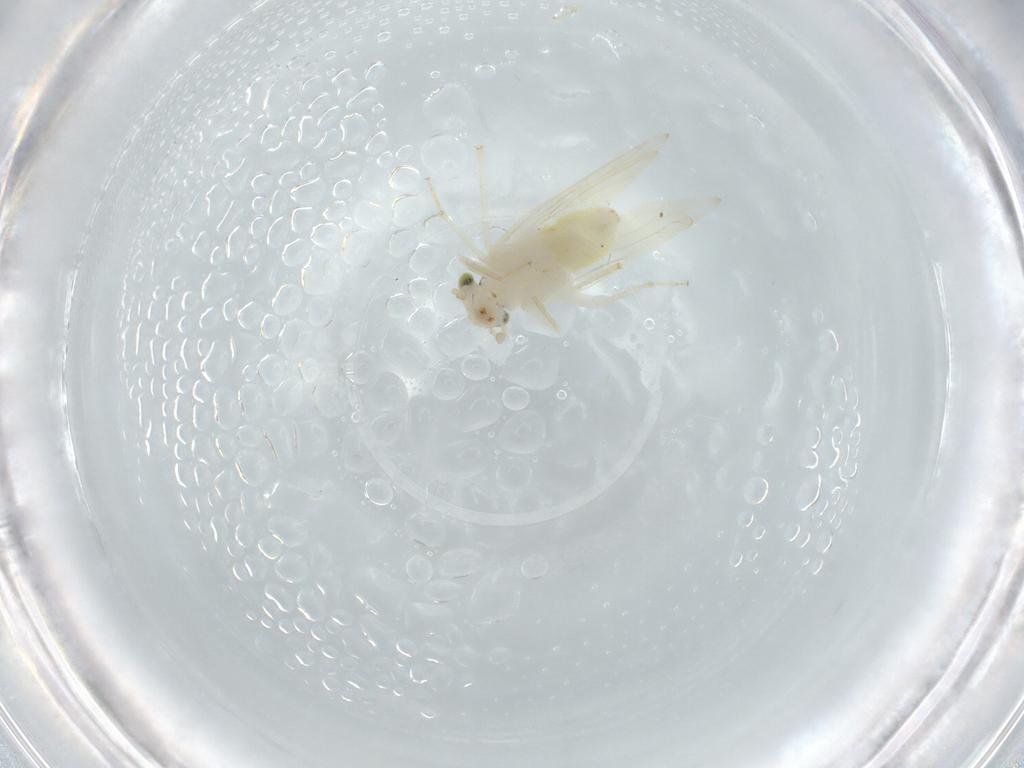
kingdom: Animalia
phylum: Arthropoda
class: Insecta
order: Psocodea
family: Lepidopsocidae
